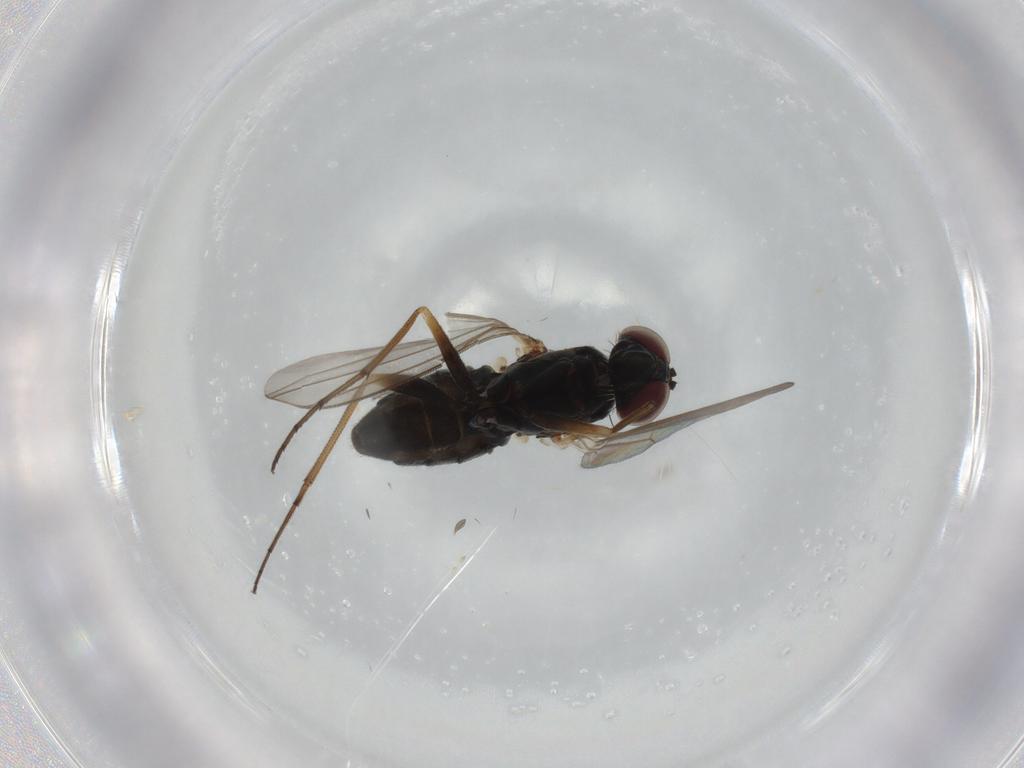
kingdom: Animalia
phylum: Arthropoda
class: Insecta
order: Diptera
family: Dolichopodidae
